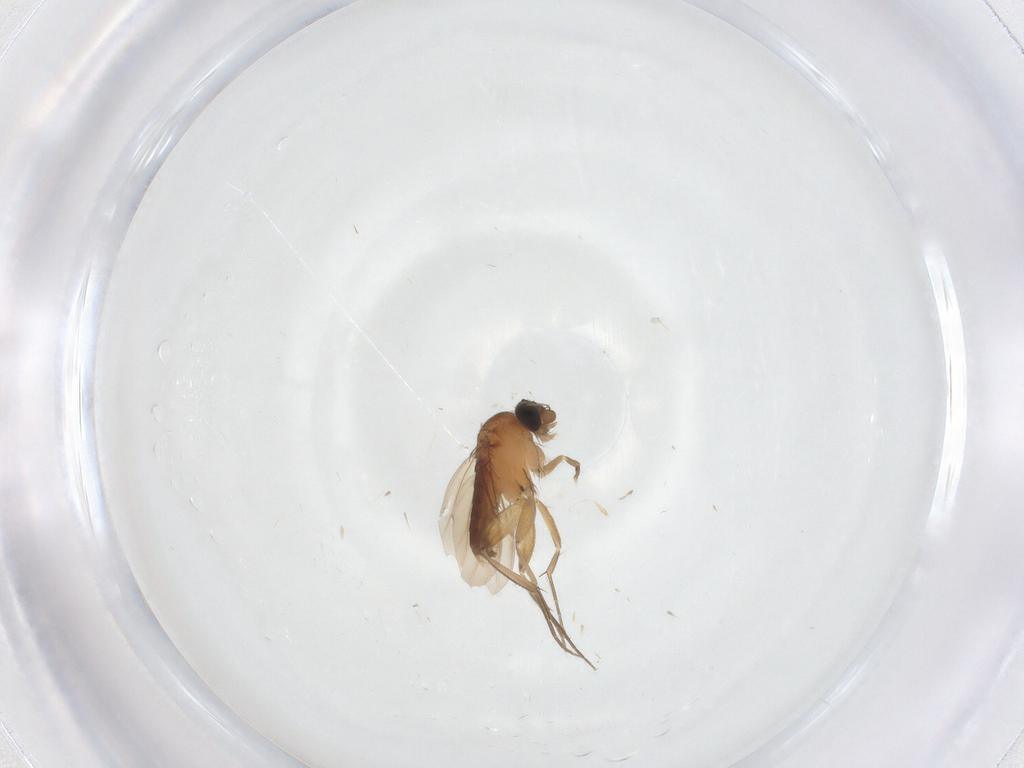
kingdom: Animalia
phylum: Arthropoda
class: Insecta
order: Diptera
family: Phoridae
